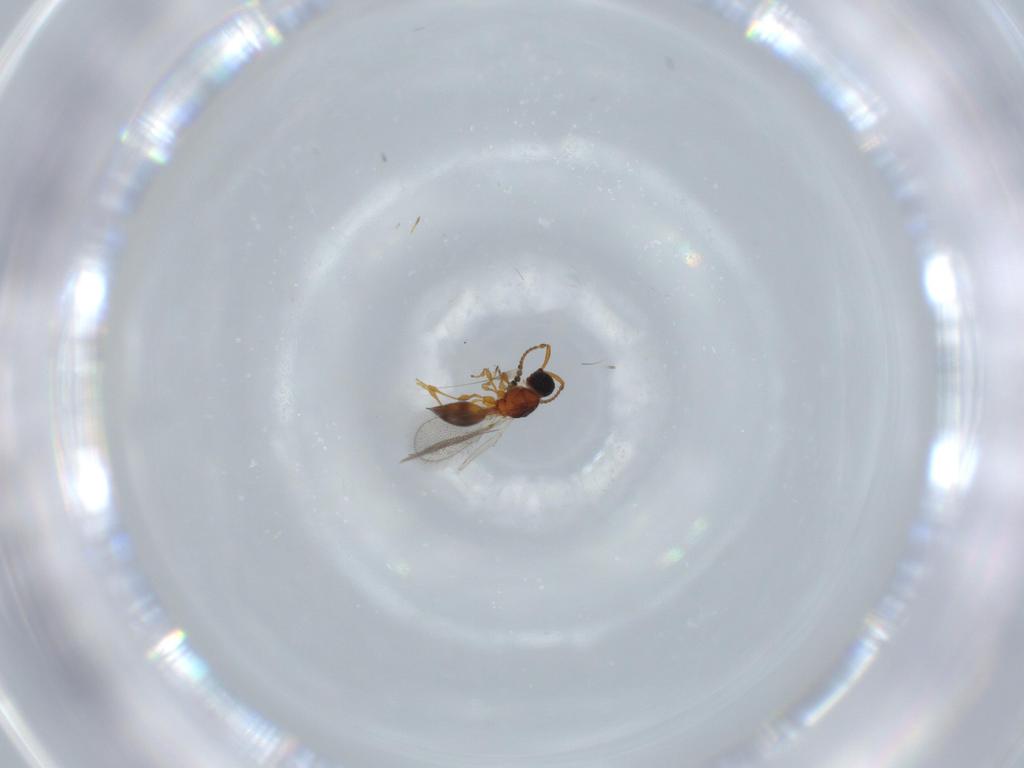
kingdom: Animalia
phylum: Arthropoda
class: Insecta
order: Hymenoptera
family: Diapriidae
